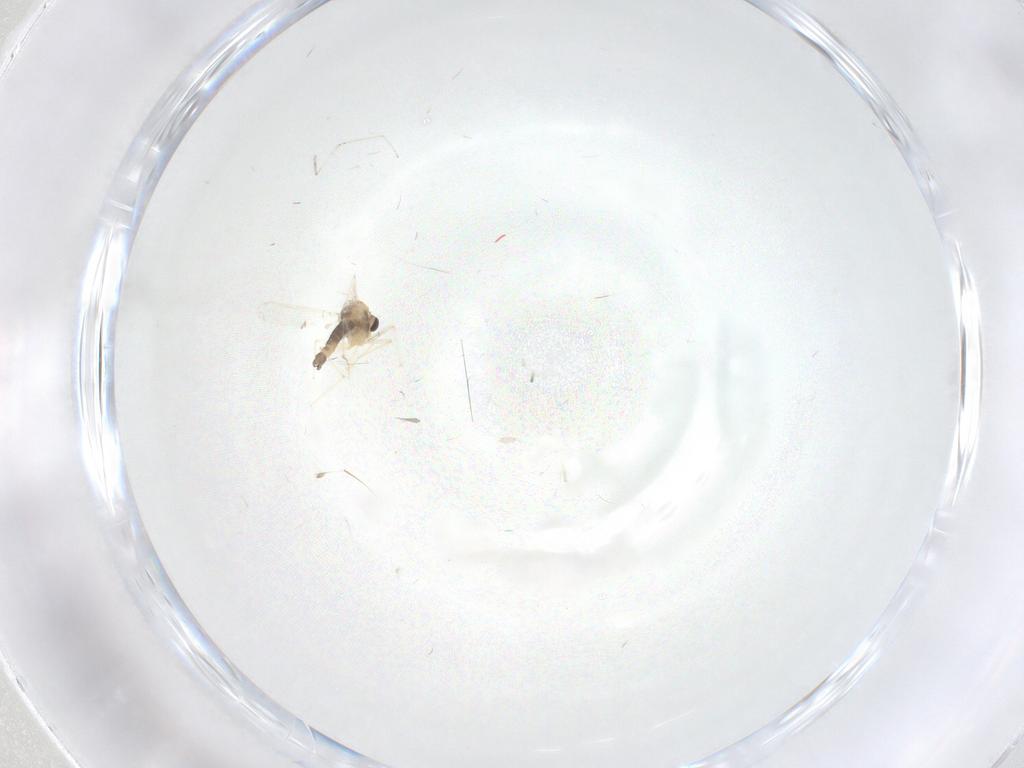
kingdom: Animalia
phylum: Arthropoda
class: Insecta
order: Diptera
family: Chironomidae
